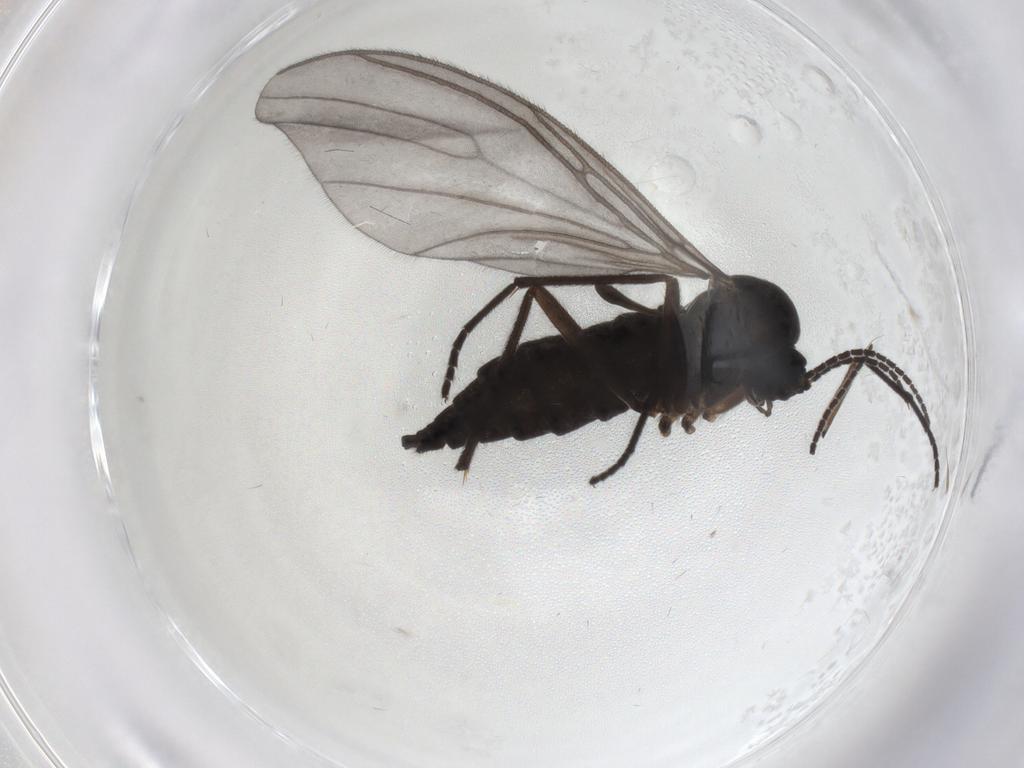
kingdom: Animalia
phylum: Arthropoda
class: Insecta
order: Diptera
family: Sciaridae
